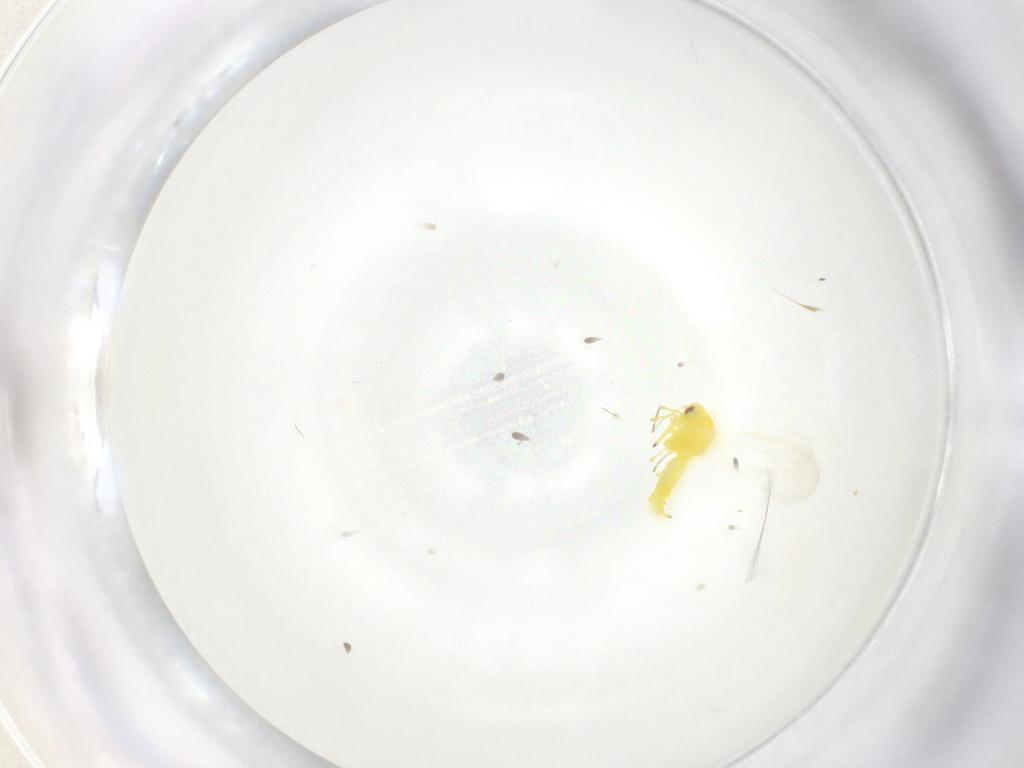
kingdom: Animalia
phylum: Arthropoda
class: Insecta
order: Hemiptera
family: Aleyrodidae
